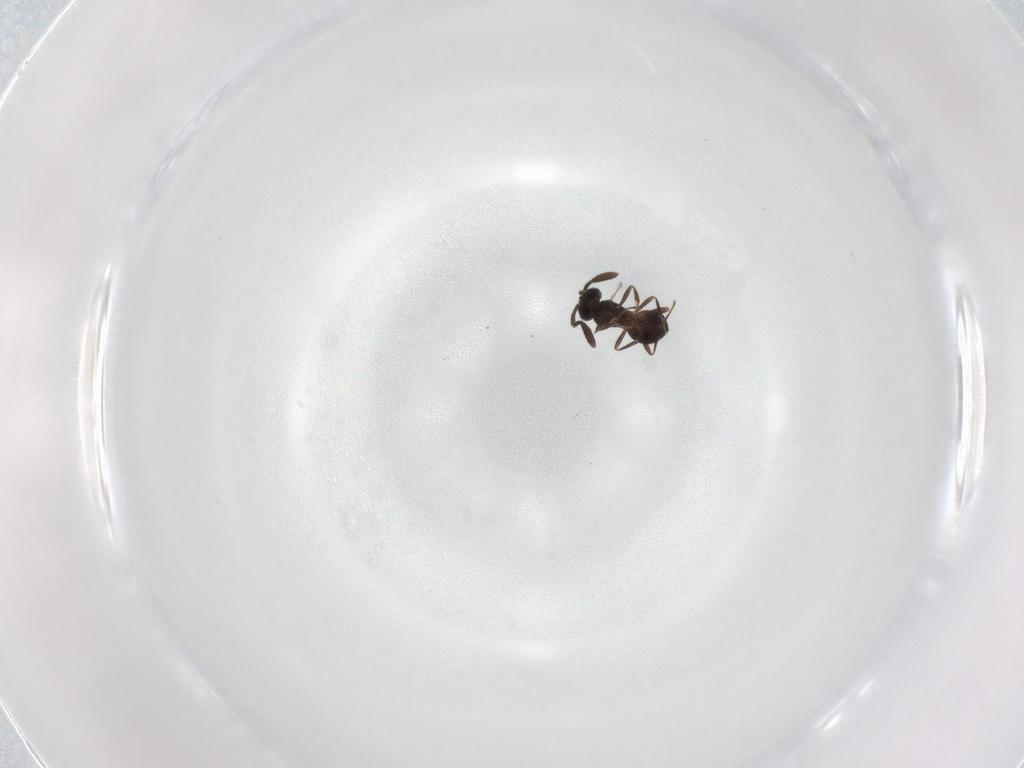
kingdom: Animalia
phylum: Arthropoda
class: Insecta
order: Hymenoptera
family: Scelionidae
